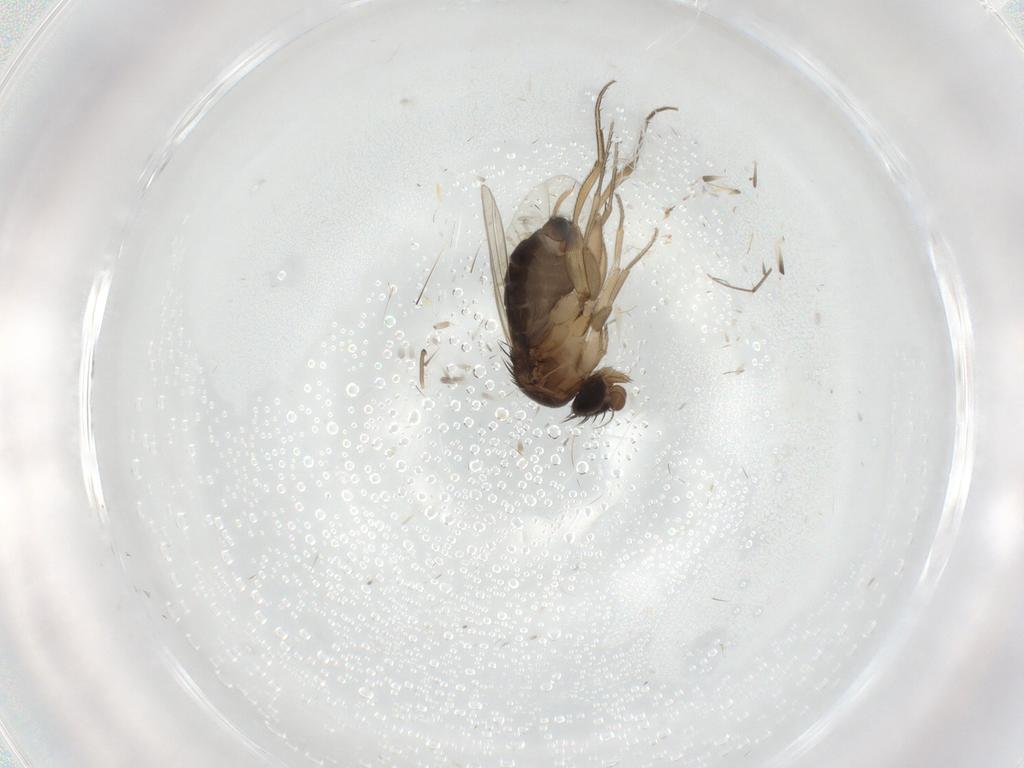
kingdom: Animalia
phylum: Arthropoda
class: Insecta
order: Diptera
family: Phoridae
